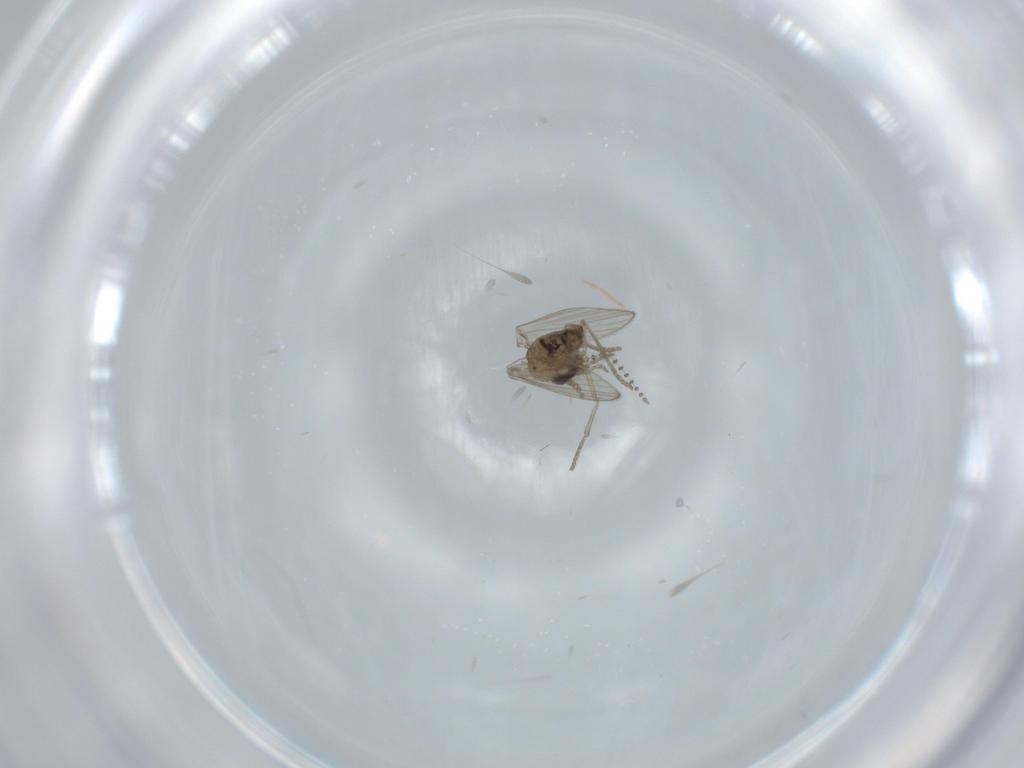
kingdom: Animalia
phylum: Arthropoda
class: Insecta
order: Diptera
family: Psychodidae
